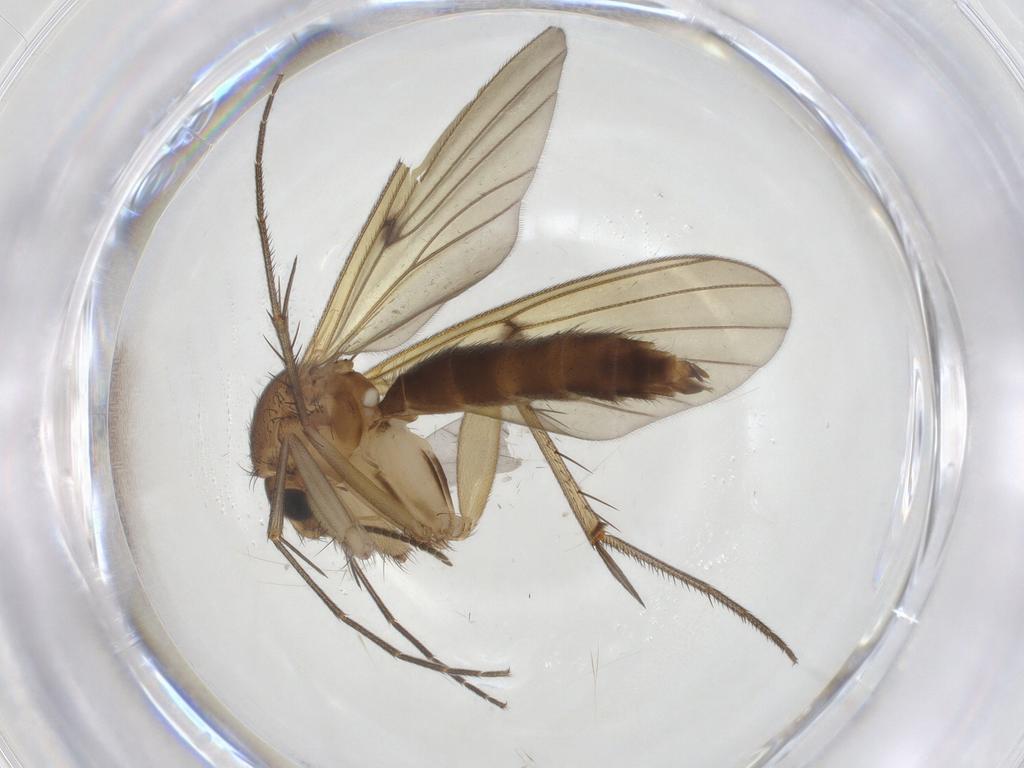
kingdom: Animalia
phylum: Arthropoda
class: Insecta
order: Diptera
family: Mycetophilidae
